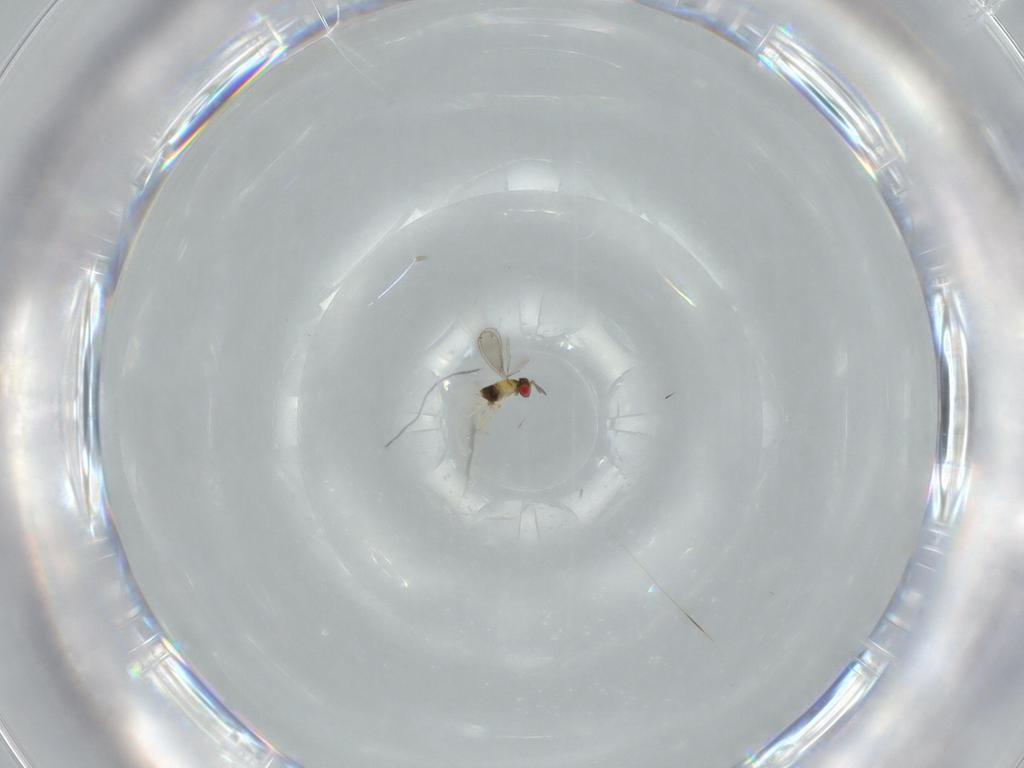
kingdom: Animalia
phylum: Arthropoda
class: Insecta
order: Hymenoptera
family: Aphelinidae
